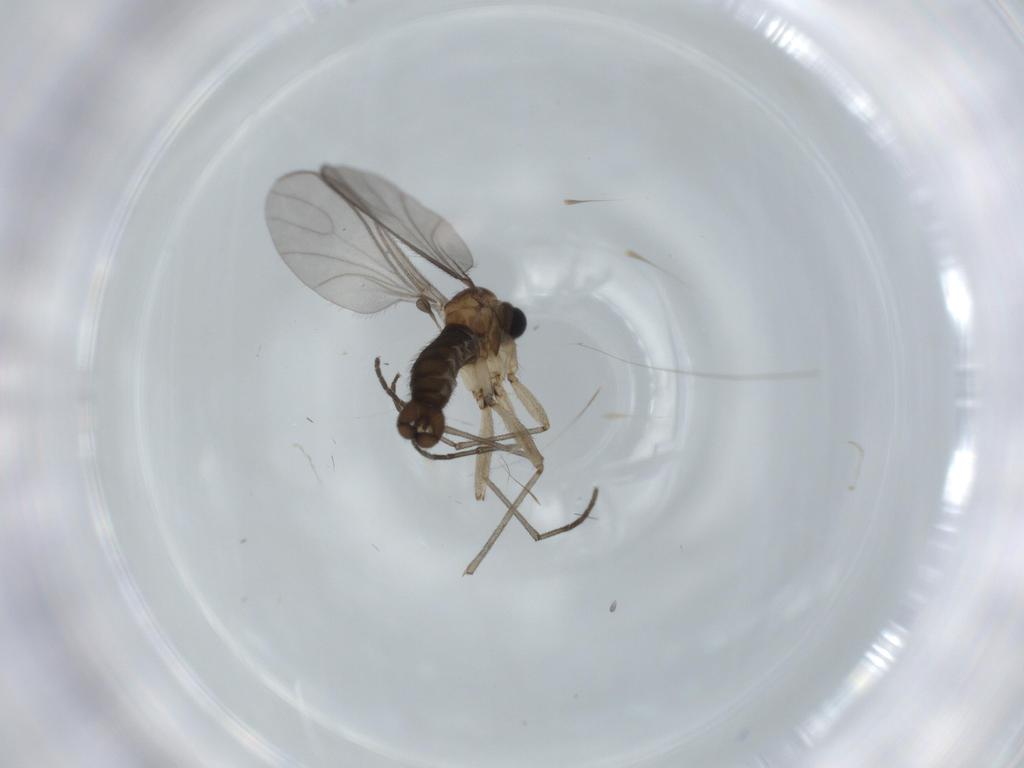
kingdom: Animalia
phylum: Arthropoda
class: Insecta
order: Diptera
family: Sciaridae
